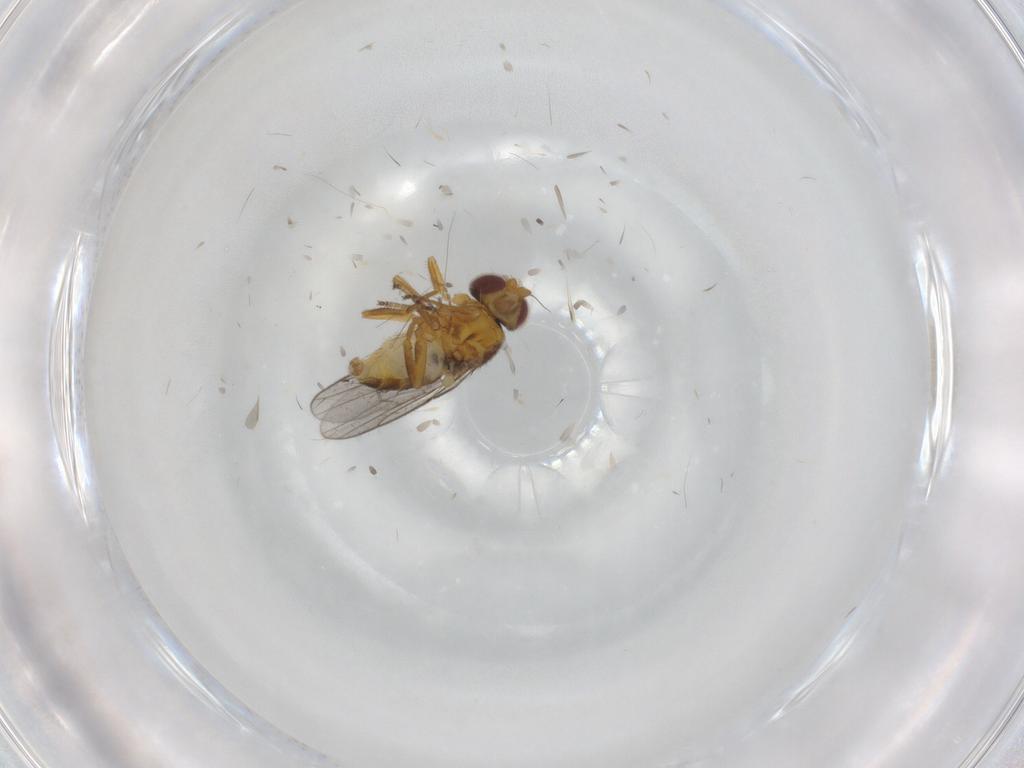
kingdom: Animalia
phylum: Arthropoda
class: Insecta
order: Diptera
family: Chloropidae
